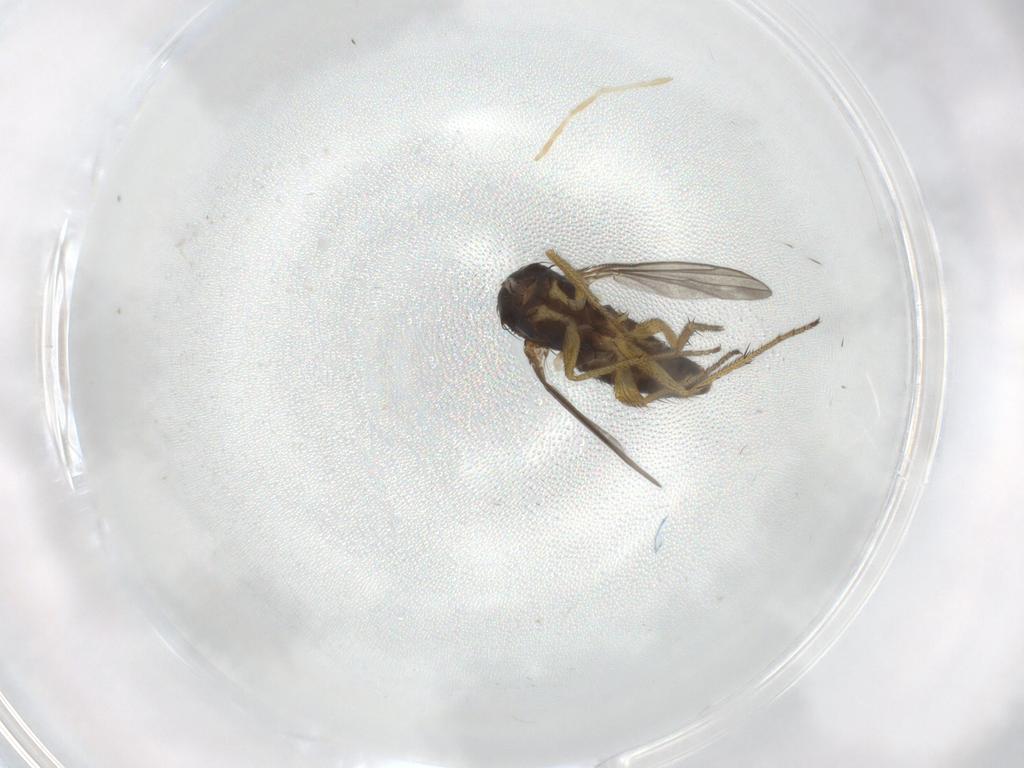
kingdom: Animalia
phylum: Arthropoda
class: Insecta
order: Diptera
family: Chironomidae
